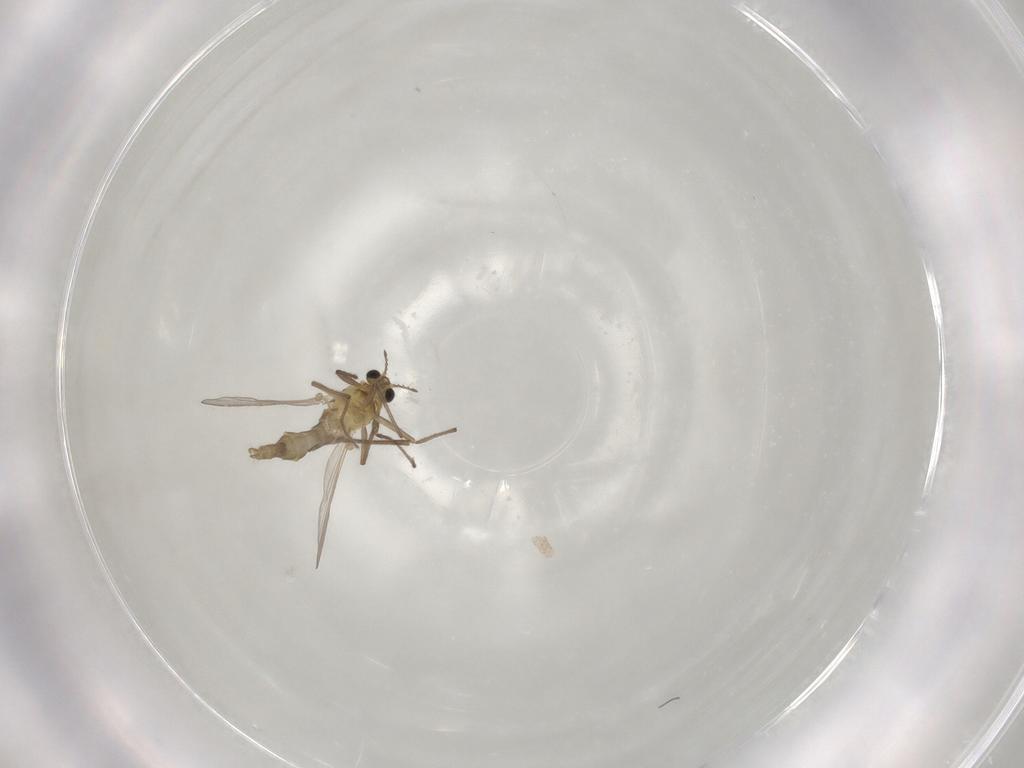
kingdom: Animalia
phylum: Arthropoda
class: Insecta
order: Diptera
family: Chironomidae
